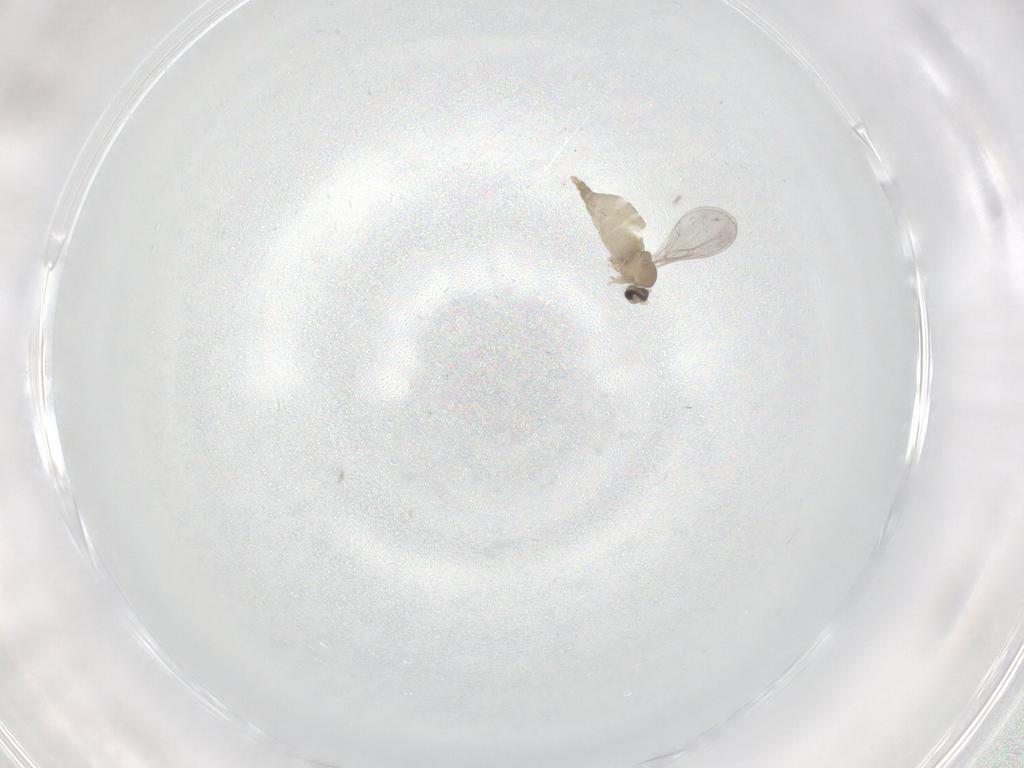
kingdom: Animalia
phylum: Arthropoda
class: Insecta
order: Diptera
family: Cecidomyiidae
